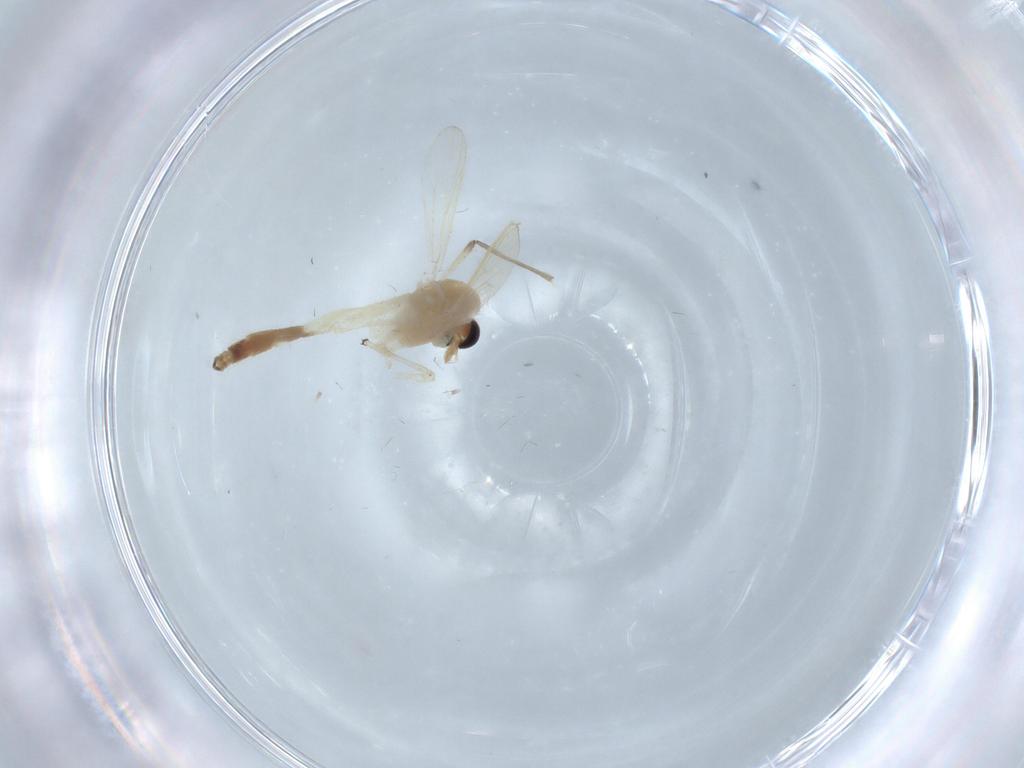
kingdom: Animalia
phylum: Arthropoda
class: Insecta
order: Diptera
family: Chironomidae
